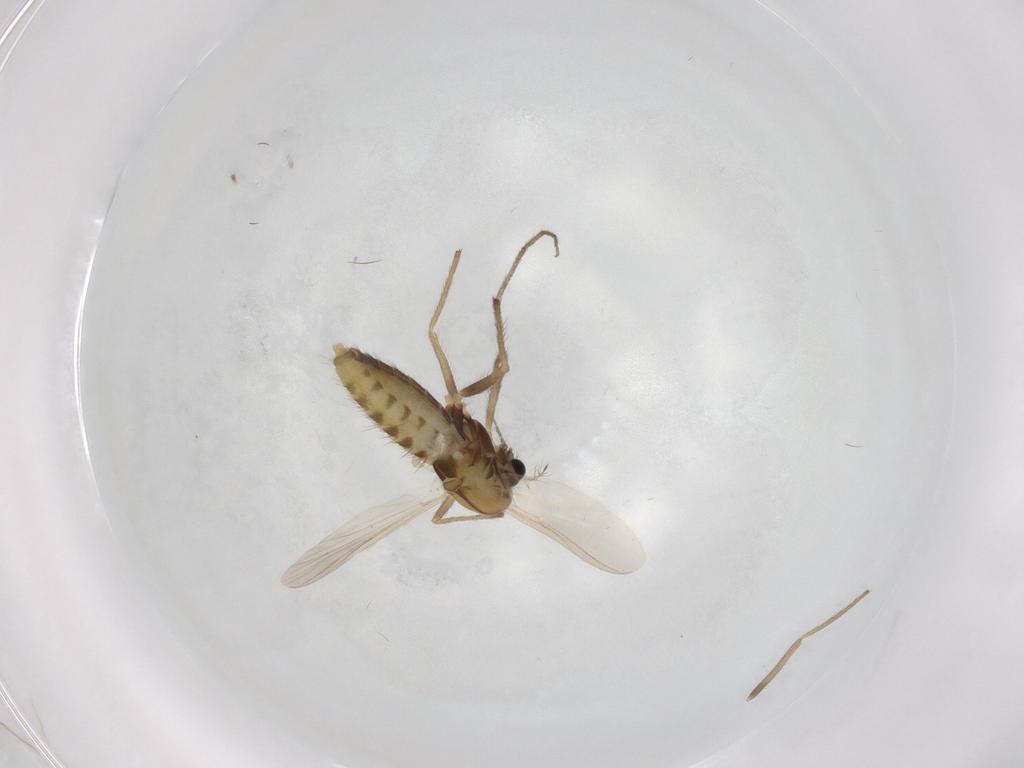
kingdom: Animalia
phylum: Arthropoda
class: Insecta
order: Diptera
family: Chironomidae
